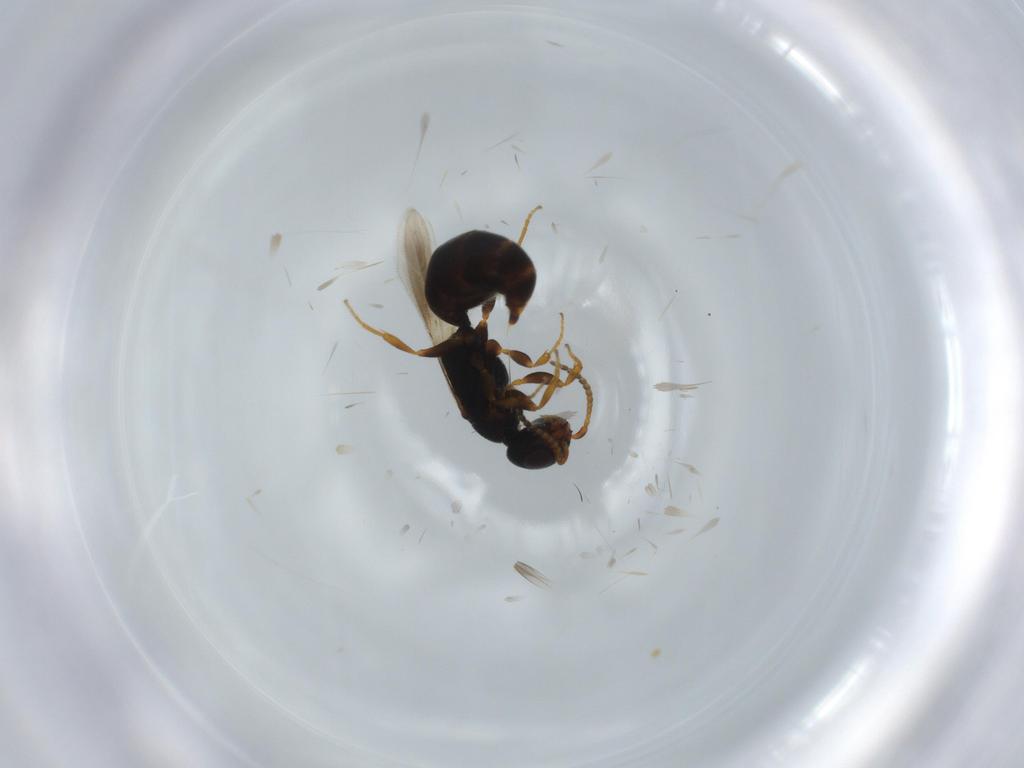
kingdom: Animalia
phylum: Arthropoda
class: Insecta
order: Hymenoptera
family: Bethylidae
